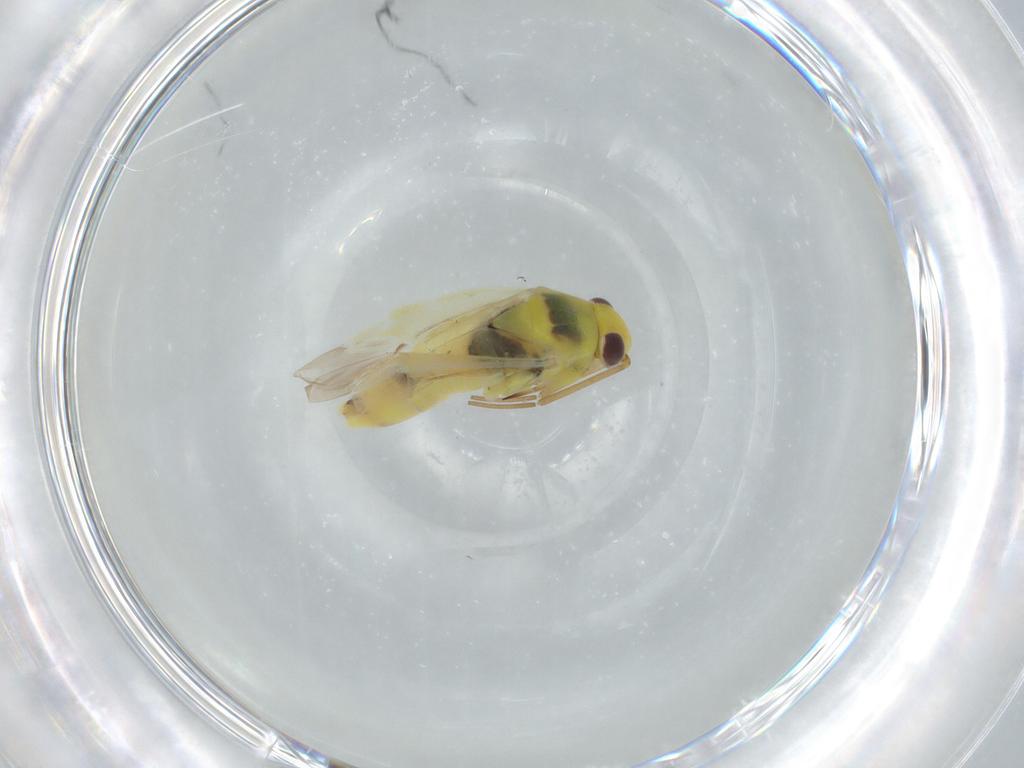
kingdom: Animalia
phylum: Arthropoda
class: Insecta
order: Hemiptera
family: Miridae
